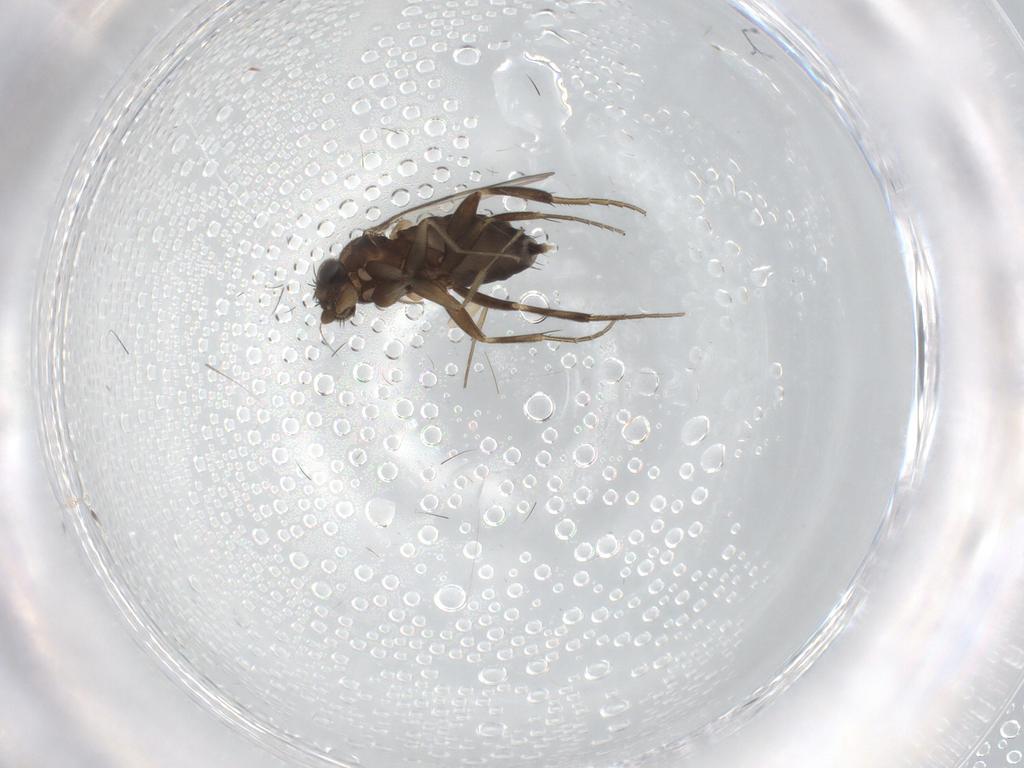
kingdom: Animalia
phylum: Arthropoda
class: Insecta
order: Diptera
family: Phoridae
